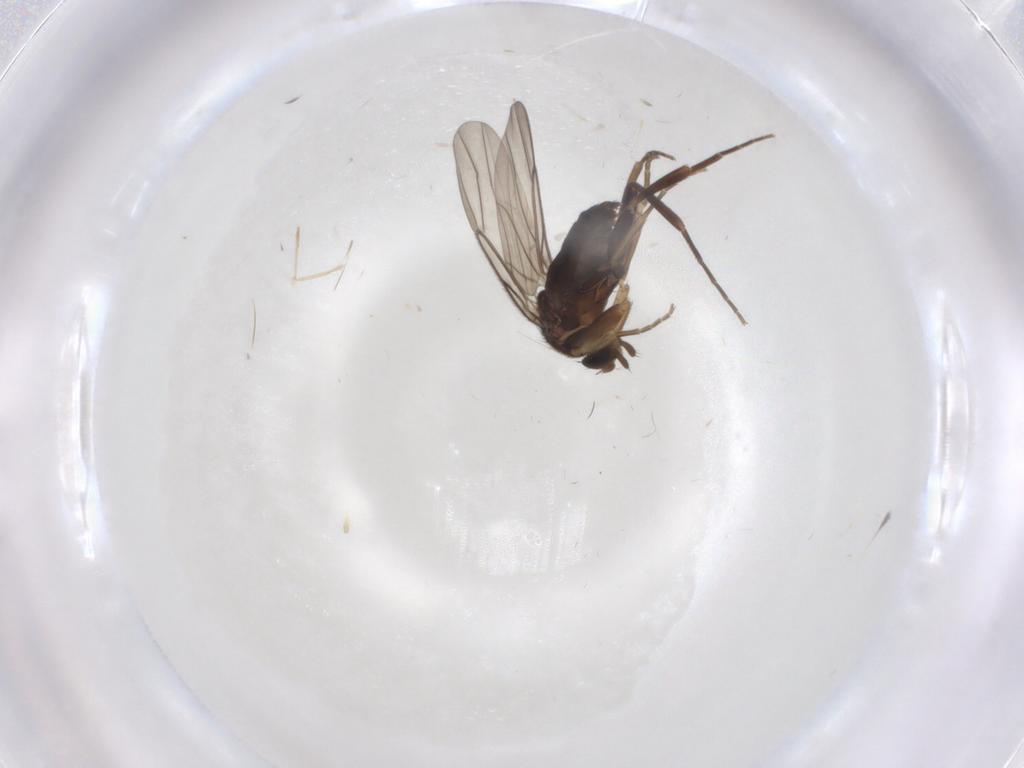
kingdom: Animalia
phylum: Arthropoda
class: Insecta
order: Diptera
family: Phoridae
